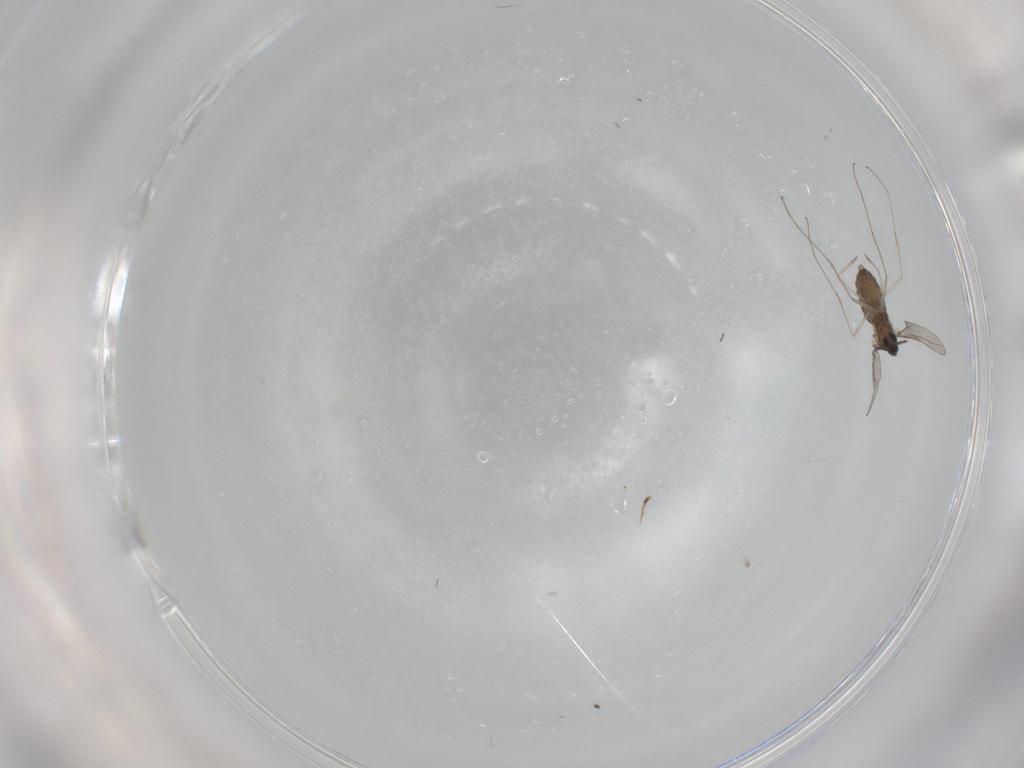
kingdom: Animalia
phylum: Arthropoda
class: Insecta
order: Diptera
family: Cecidomyiidae
